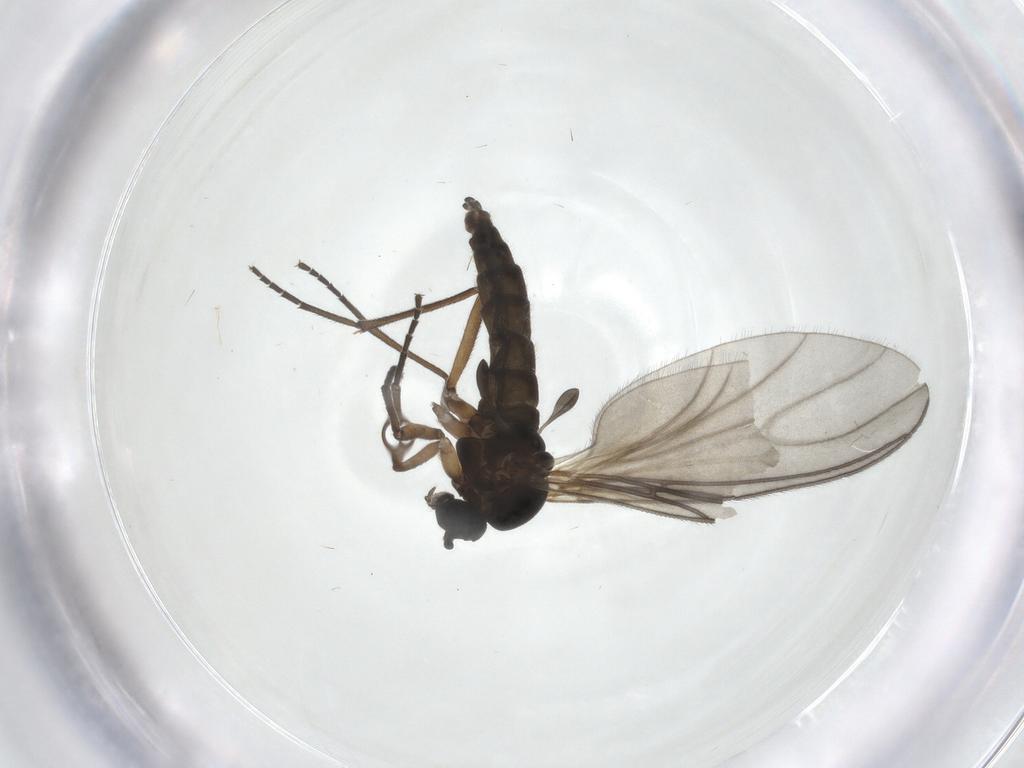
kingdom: Animalia
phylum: Arthropoda
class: Insecta
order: Diptera
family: Sciaridae
